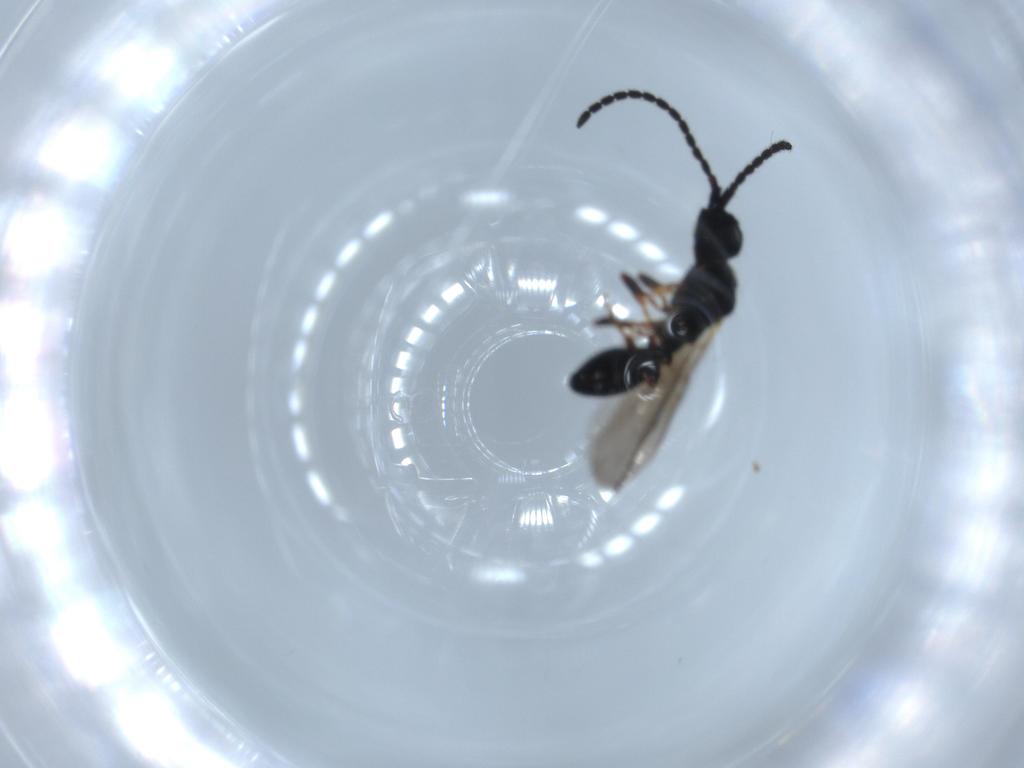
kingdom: Animalia
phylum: Arthropoda
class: Insecta
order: Hymenoptera
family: Diapriidae
